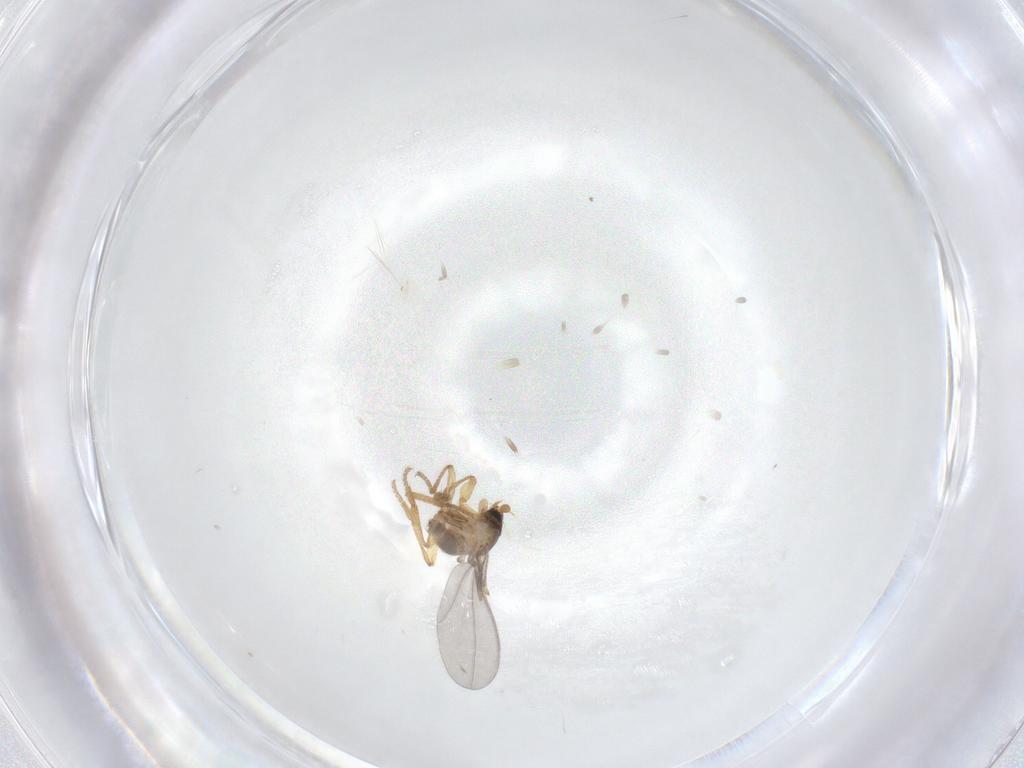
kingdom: Animalia
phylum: Arthropoda
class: Insecta
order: Diptera
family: Cecidomyiidae
